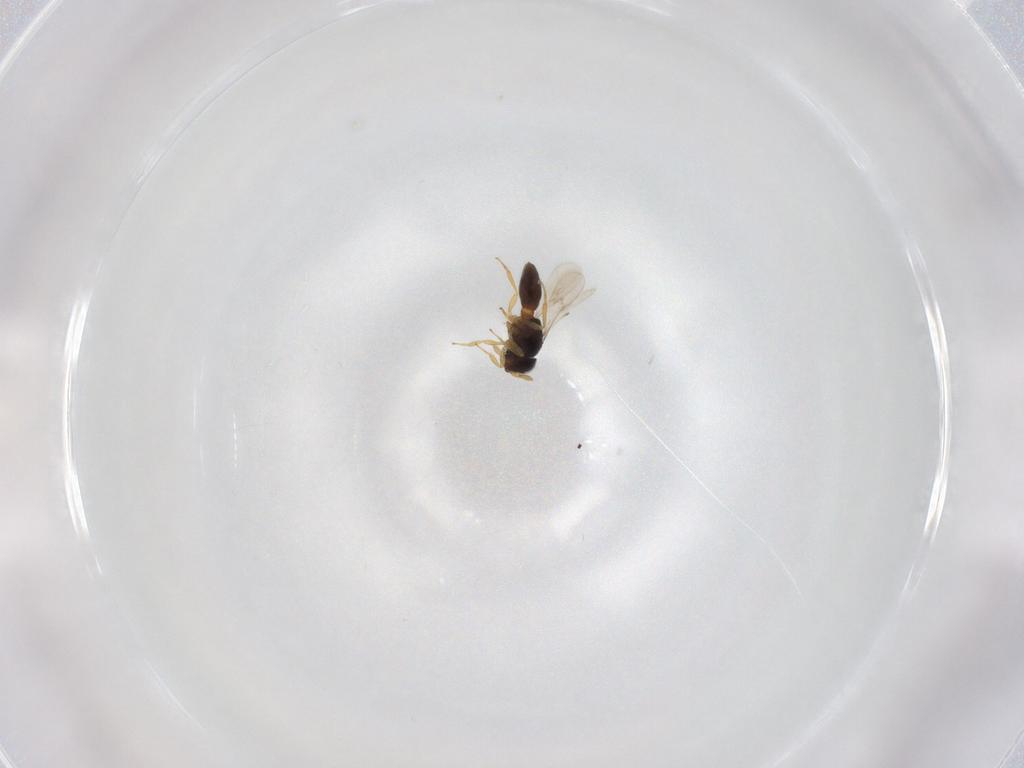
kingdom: Animalia
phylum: Arthropoda
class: Insecta
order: Hymenoptera
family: Scelionidae
